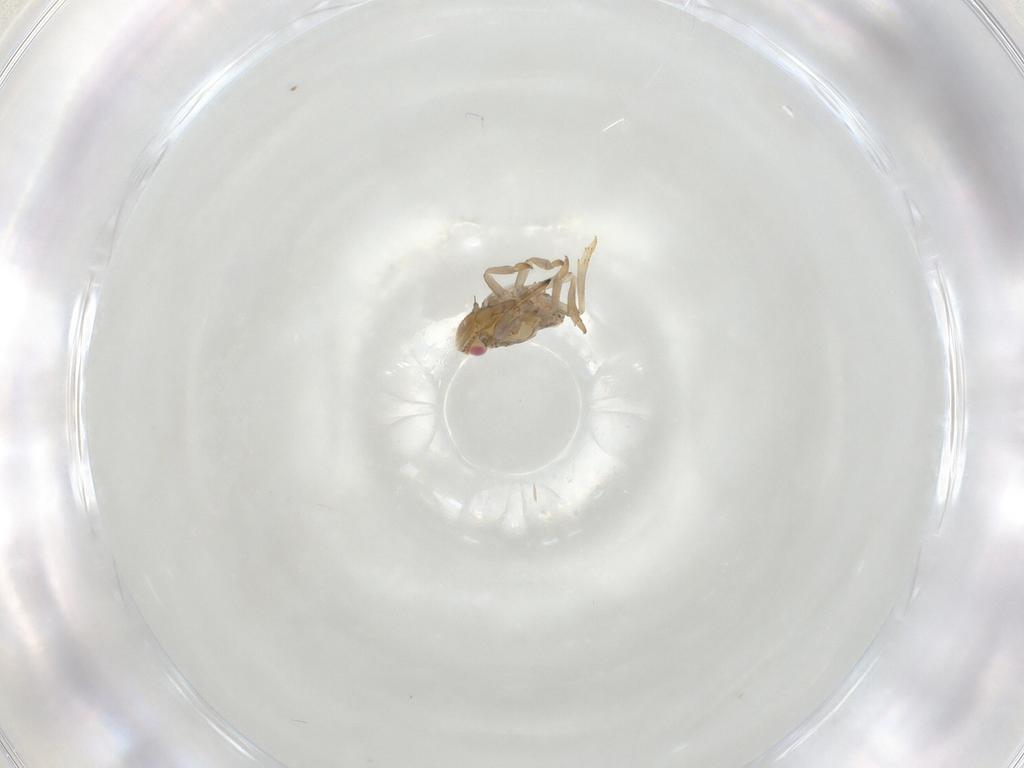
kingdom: Animalia
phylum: Arthropoda
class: Insecta
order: Hemiptera
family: Tropiduchidae
